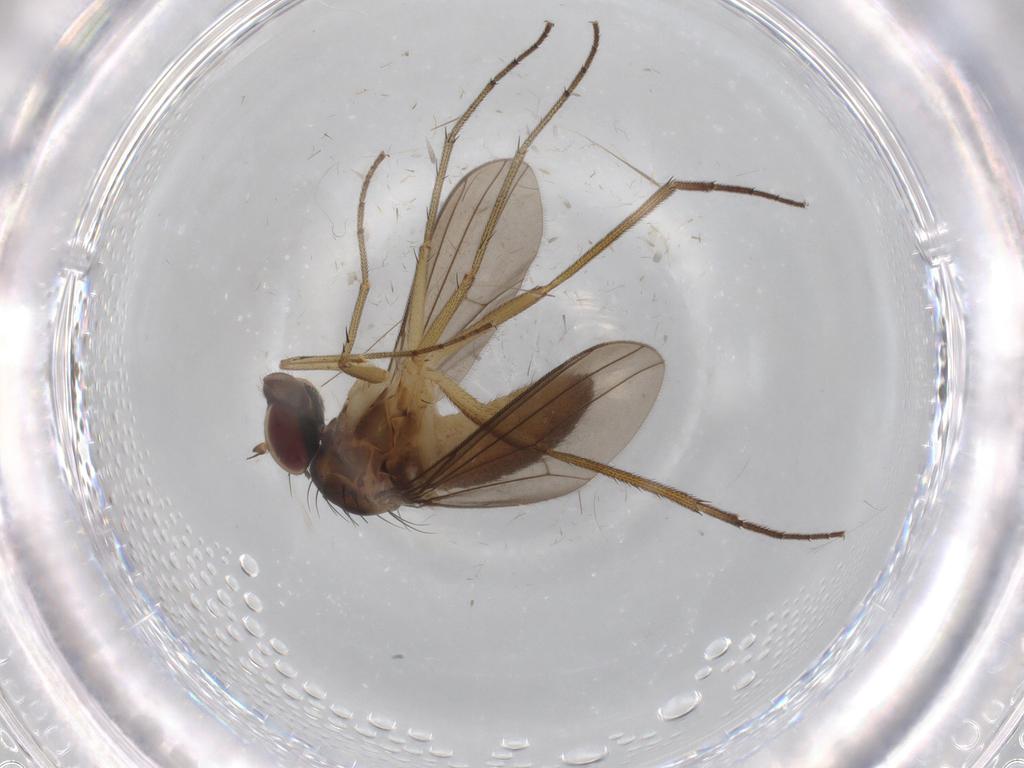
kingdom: Animalia
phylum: Arthropoda
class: Insecta
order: Diptera
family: Dolichopodidae
